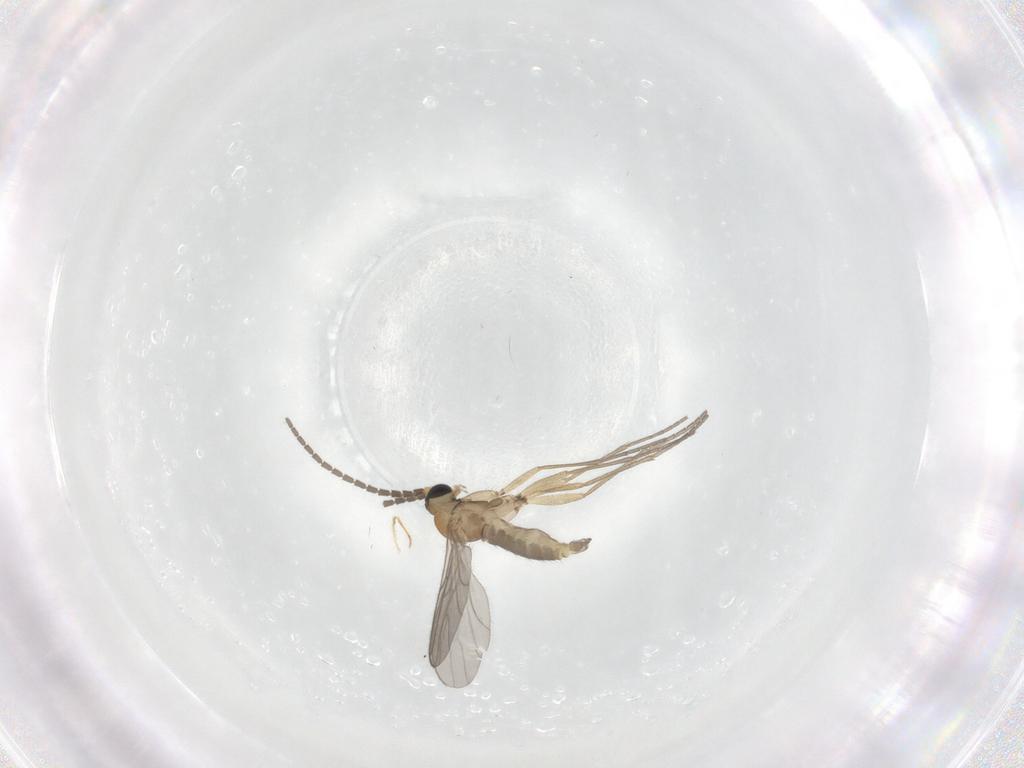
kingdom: Animalia
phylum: Arthropoda
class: Insecta
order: Diptera
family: Sciaridae
